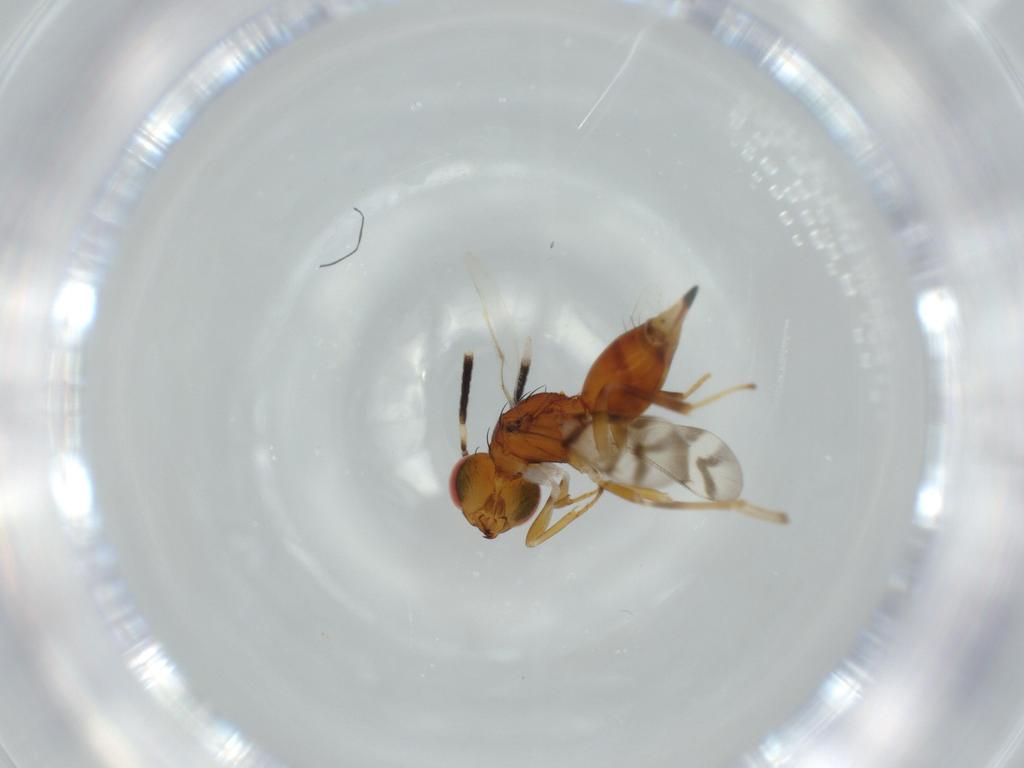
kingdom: Animalia
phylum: Arthropoda
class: Insecta
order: Hymenoptera
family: Diparidae
